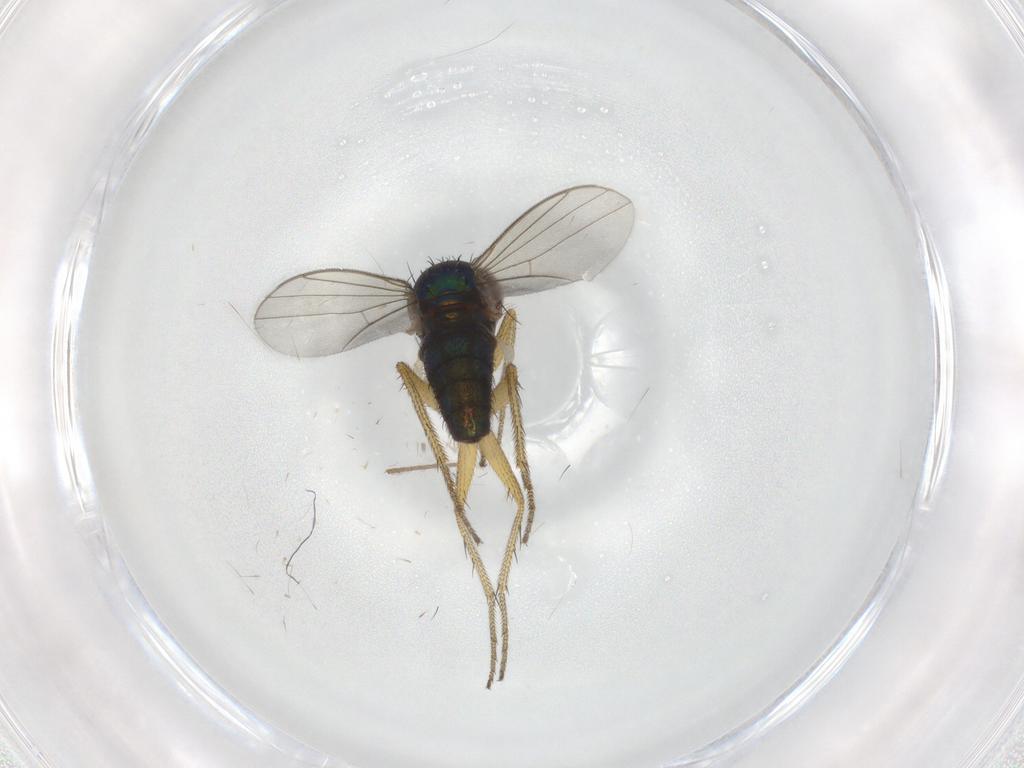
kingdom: Animalia
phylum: Arthropoda
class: Insecta
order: Diptera
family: Dolichopodidae
